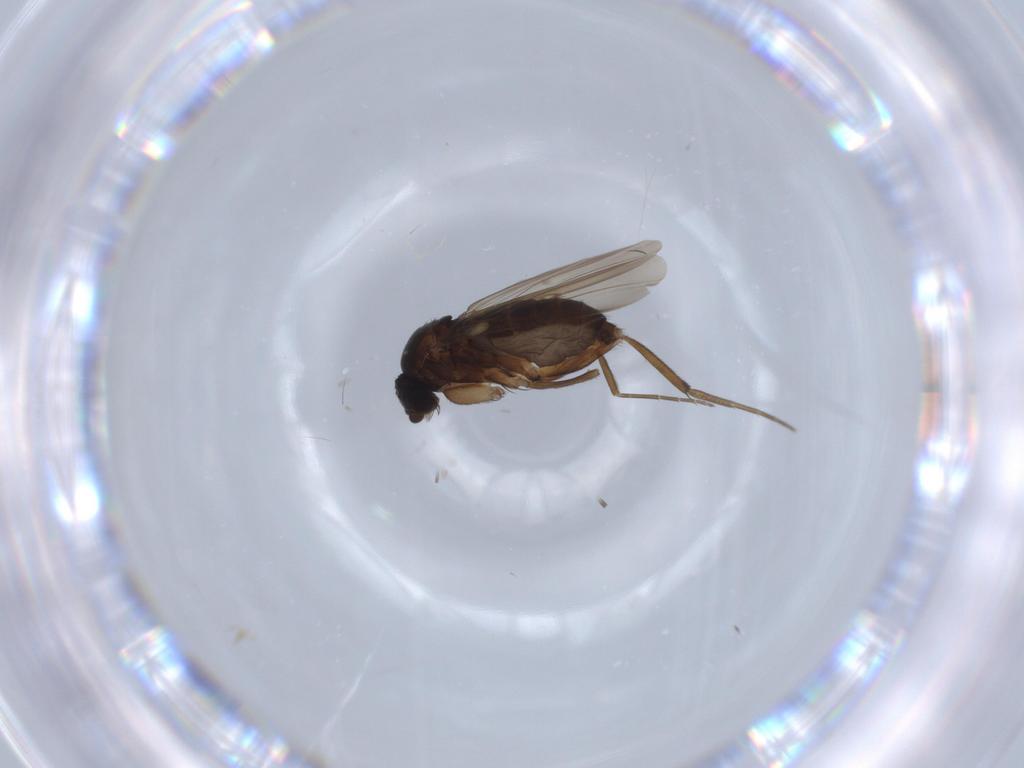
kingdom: Animalia
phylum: Arthropoda
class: Insecta
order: Diptera
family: Phoridae
